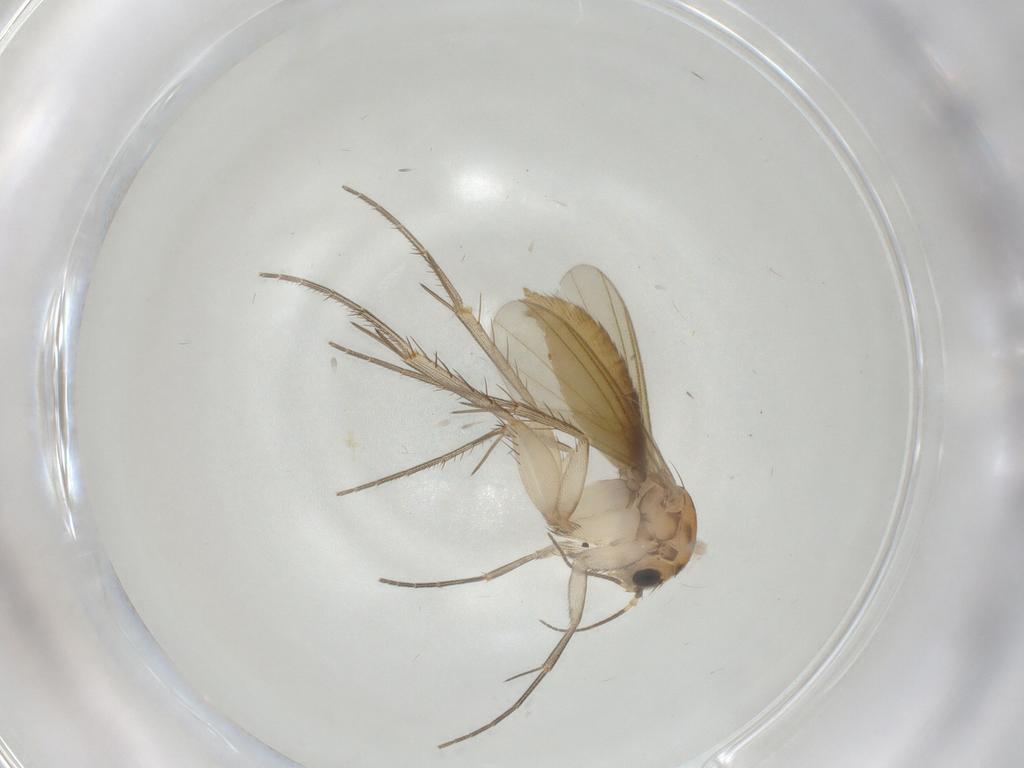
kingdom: Animalia
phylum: Arthropoda
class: Insecta
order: Diptera
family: Mycetophilidae
